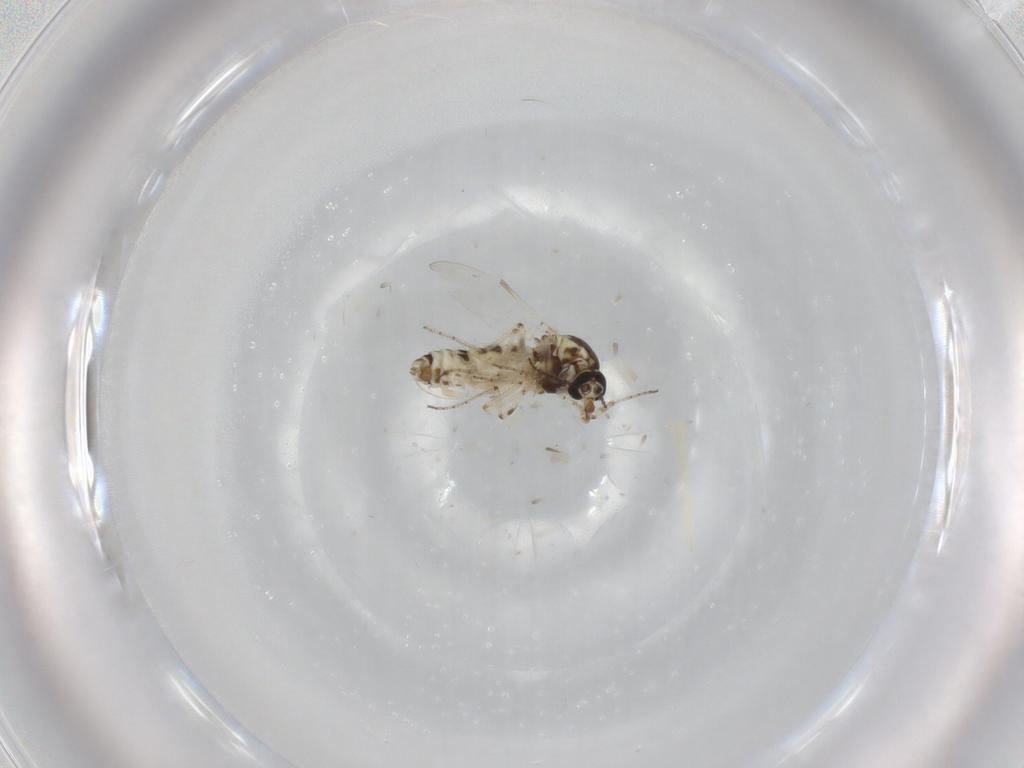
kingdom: Animalia
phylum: Arthropoda
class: Insecta
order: Diptera
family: Ceratopogonidae
